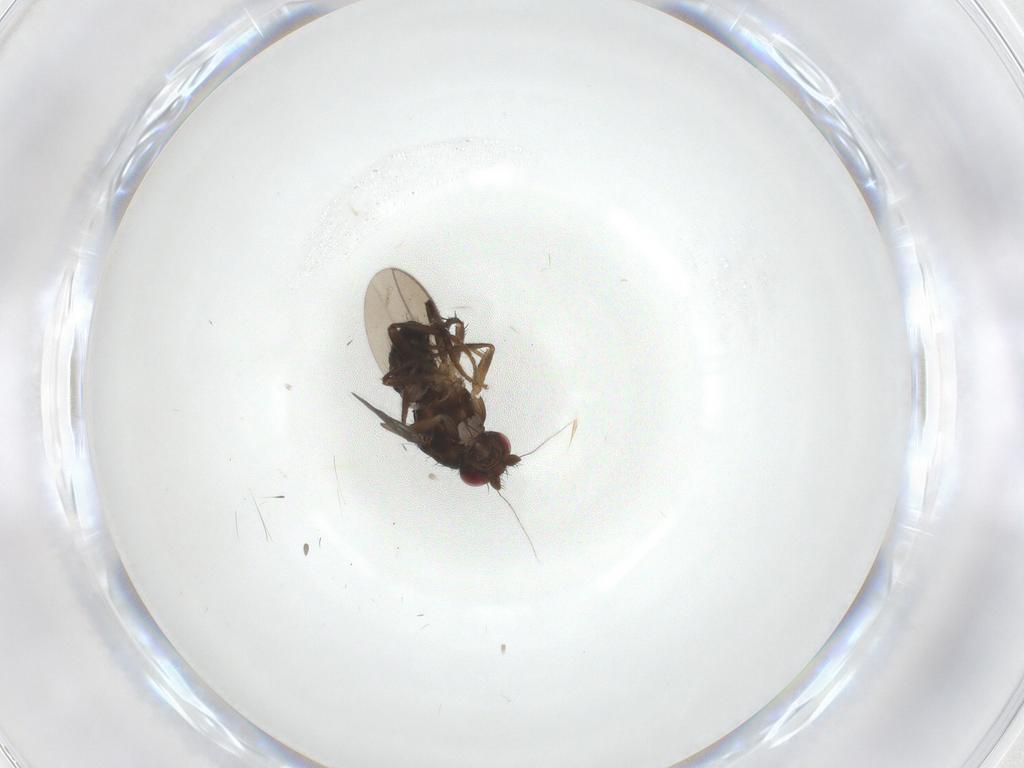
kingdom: Animalia
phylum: Arthropoda
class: Insecta
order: Diptera
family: Sphaeroceridae
